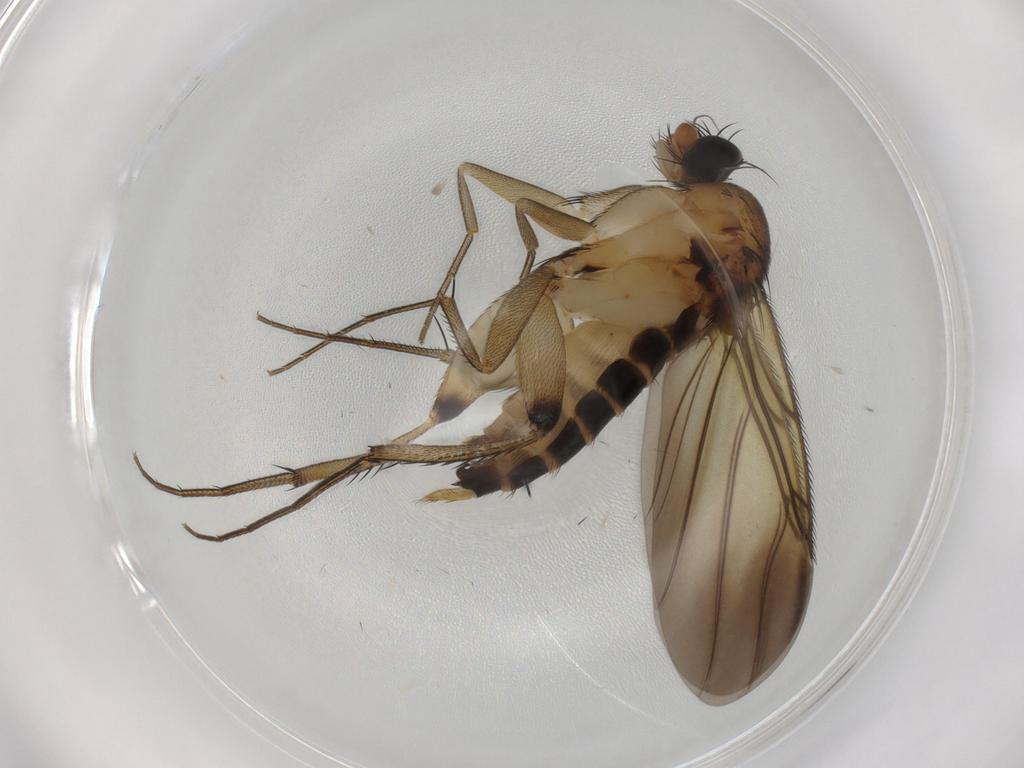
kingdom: Animalia
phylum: Arthropoda
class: Insecta
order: Diptera
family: Phoridae
